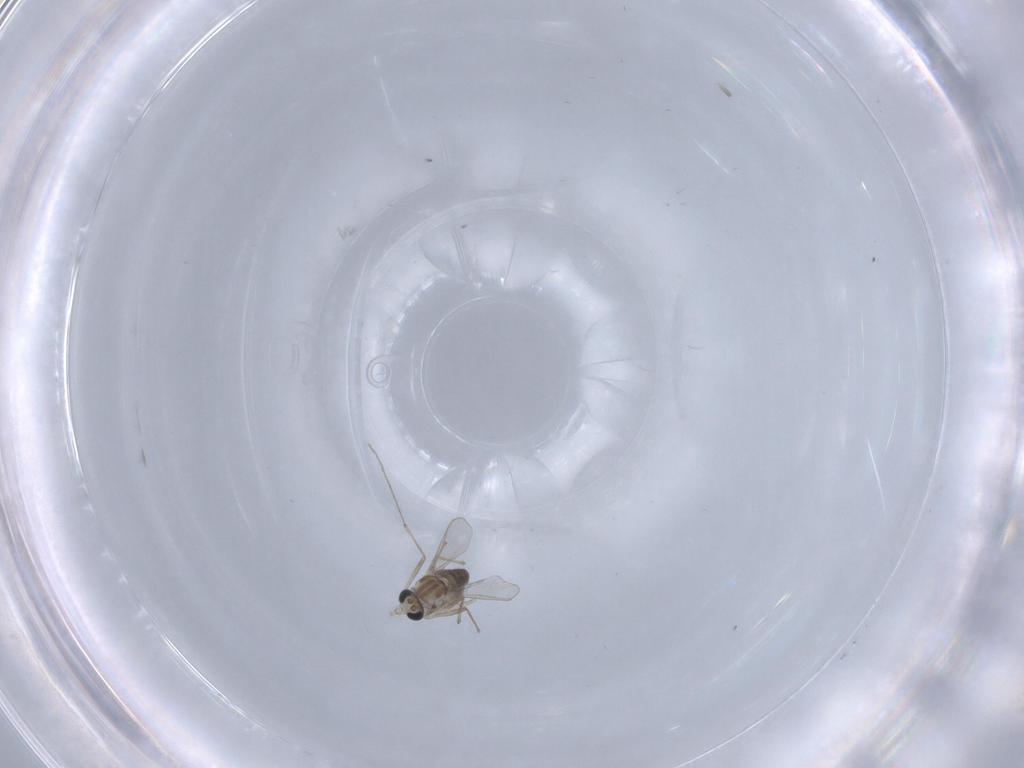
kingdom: Animalia
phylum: Arthropoda
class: Insecta
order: Diptera
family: Chironomidae
